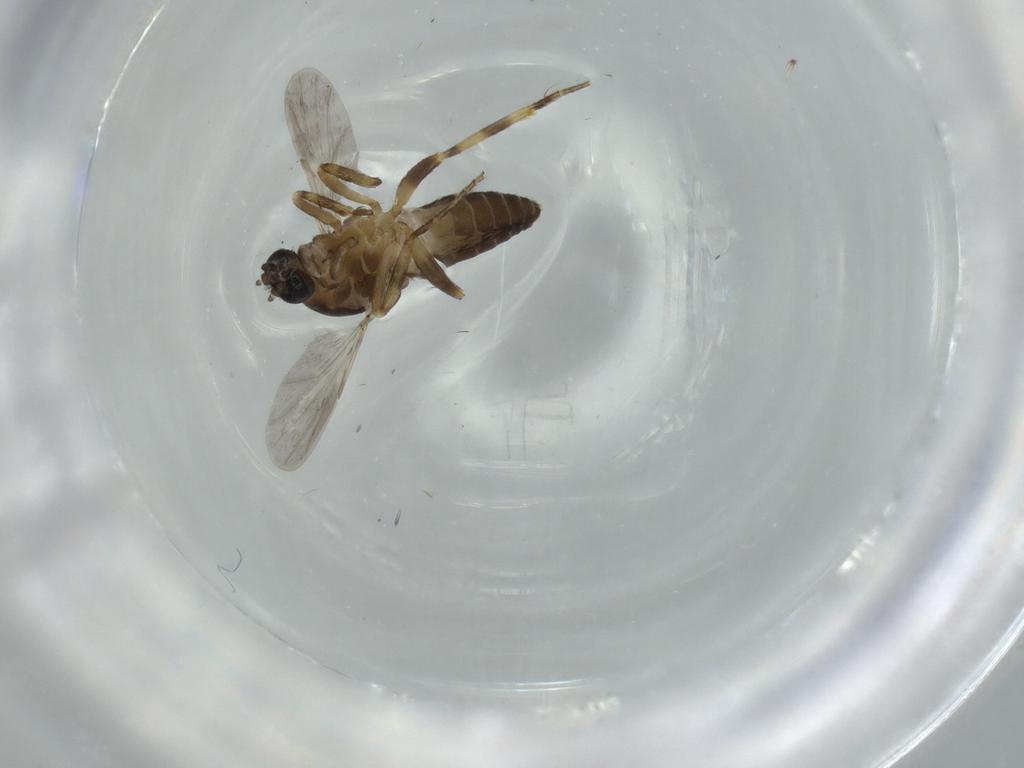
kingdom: Animalia
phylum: Arthropoda
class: Insecta
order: Diptera
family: Ceratopogonidae
